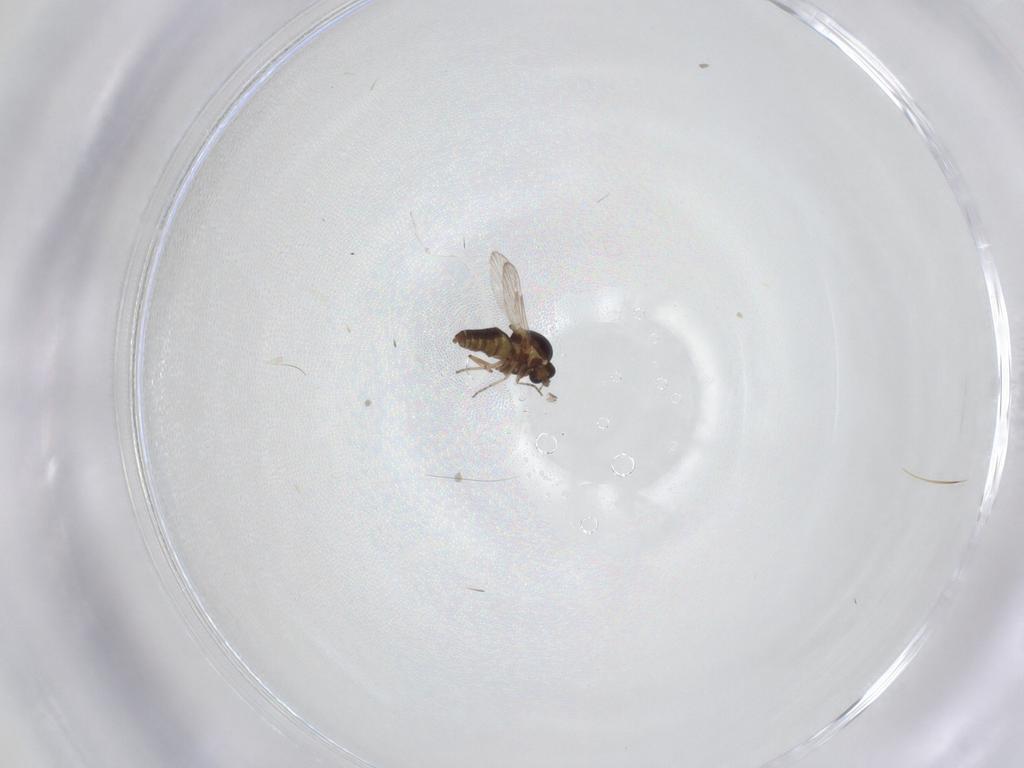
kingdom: Animalia
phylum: Arthropoda
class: Insecta
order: Diptera
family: Ceratopogonidae
